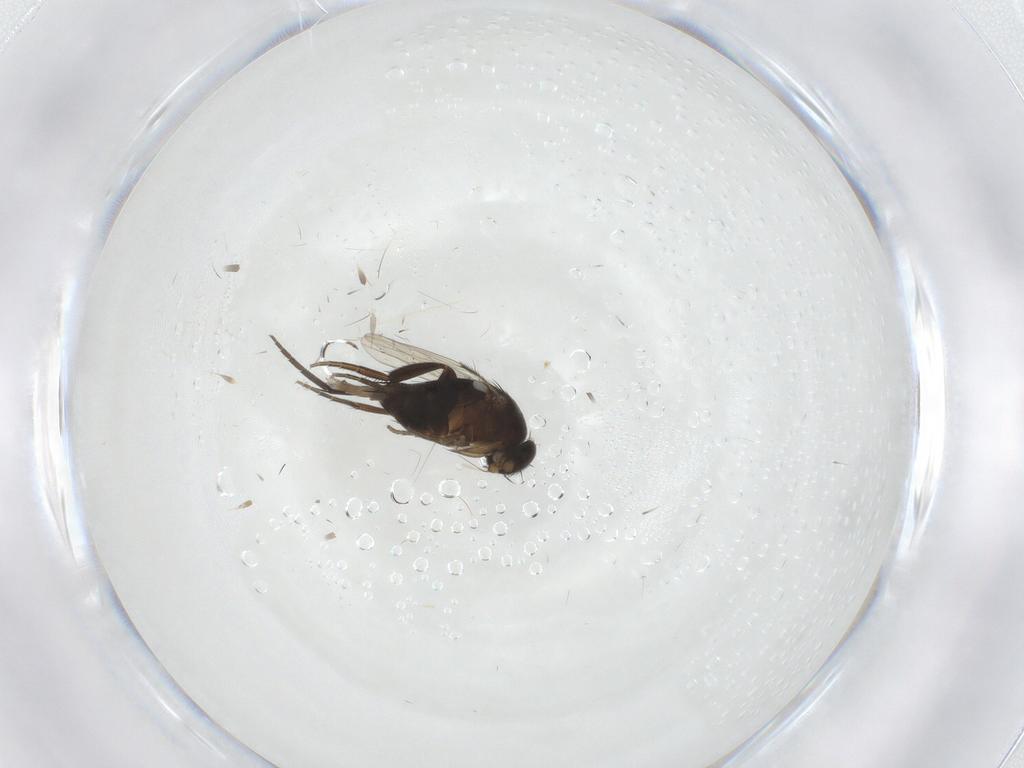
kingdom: Animalia
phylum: Arthropoda
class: Insecta
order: Diptera
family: Phoridae
